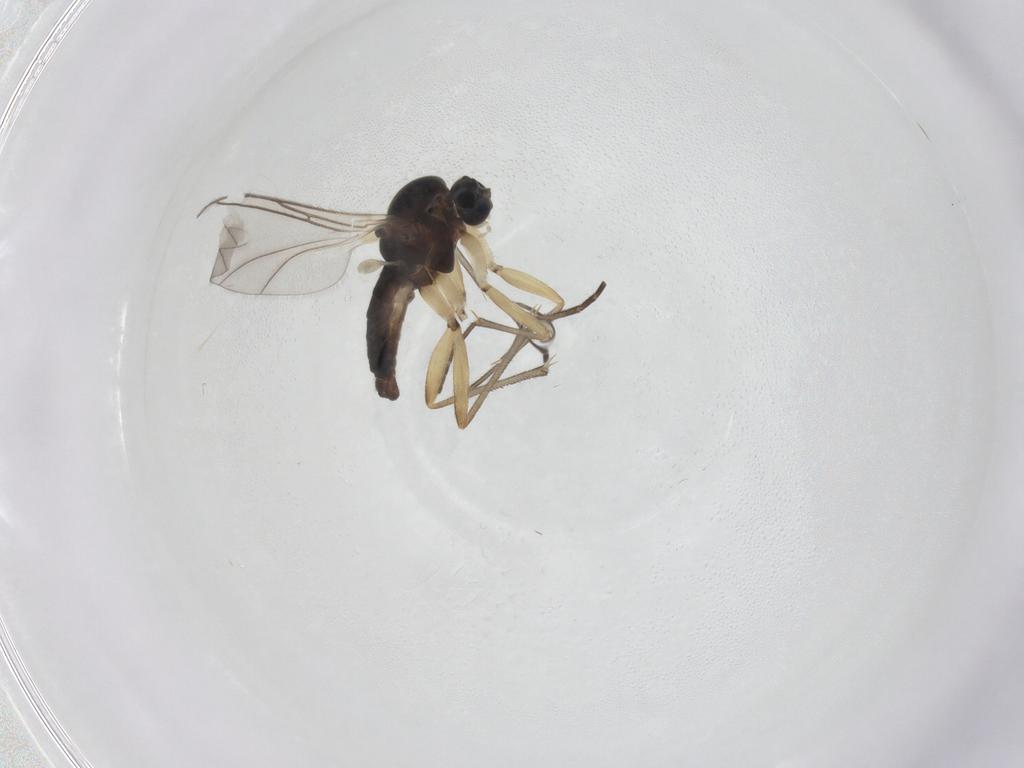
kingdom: Animalia
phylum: Arthropoda
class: Insecta
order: Diptera
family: Sciaridae
